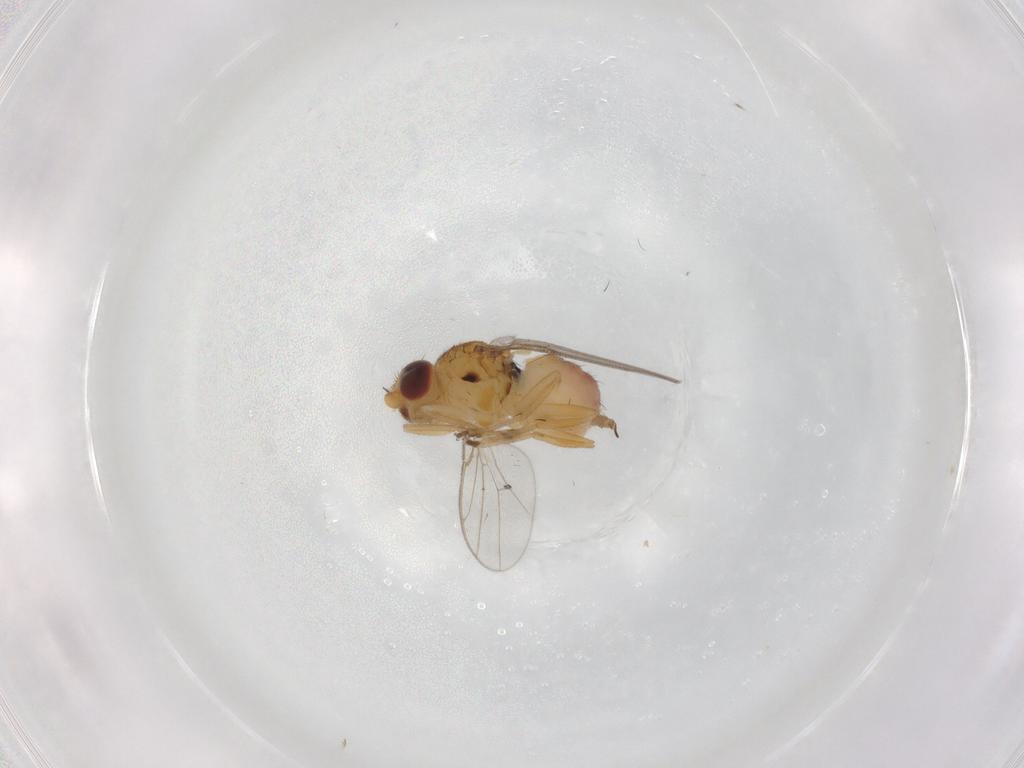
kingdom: Animalia
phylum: Arthropoda
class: Insecta
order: Diptera
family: Chloropidae
